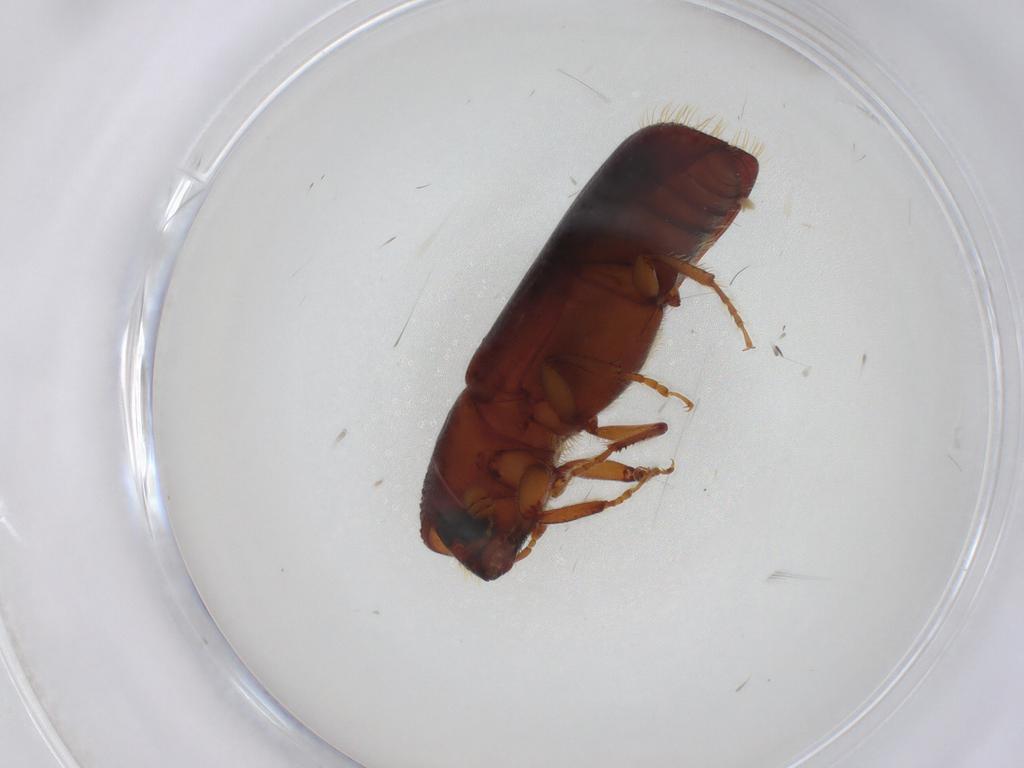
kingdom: Animalia
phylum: Arthropoda
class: Insecta
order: Coleoptera
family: Curculionidae
